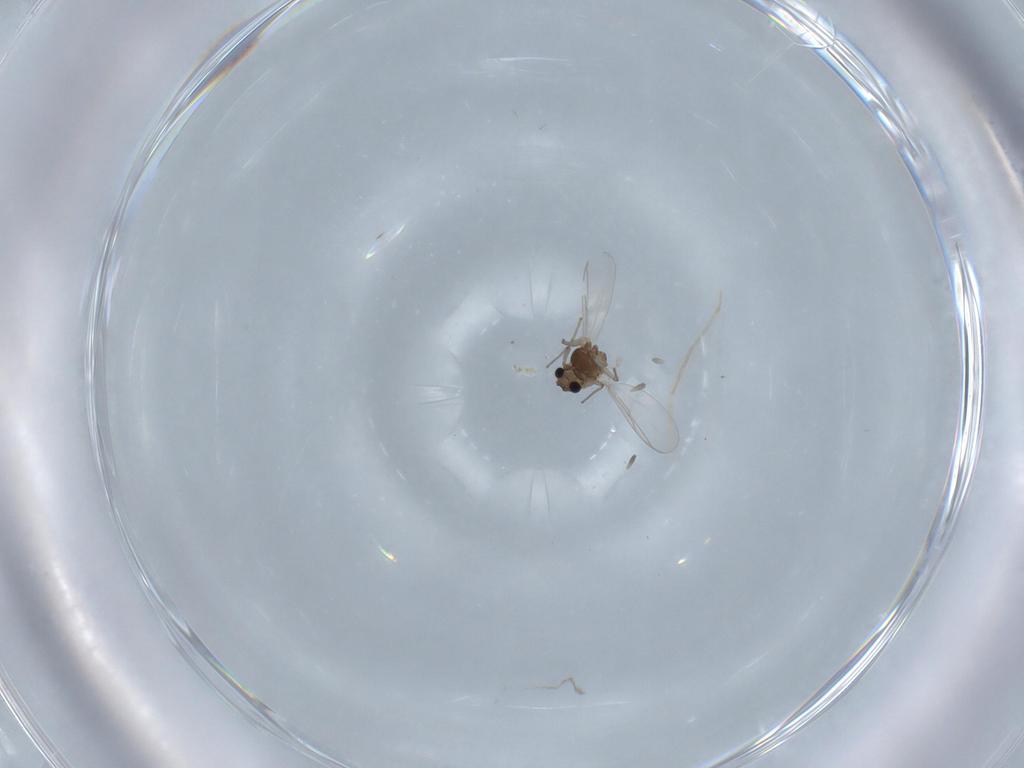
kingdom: Animalia
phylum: Arthropoda
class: Insecta
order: Diptera
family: Chironomidae
